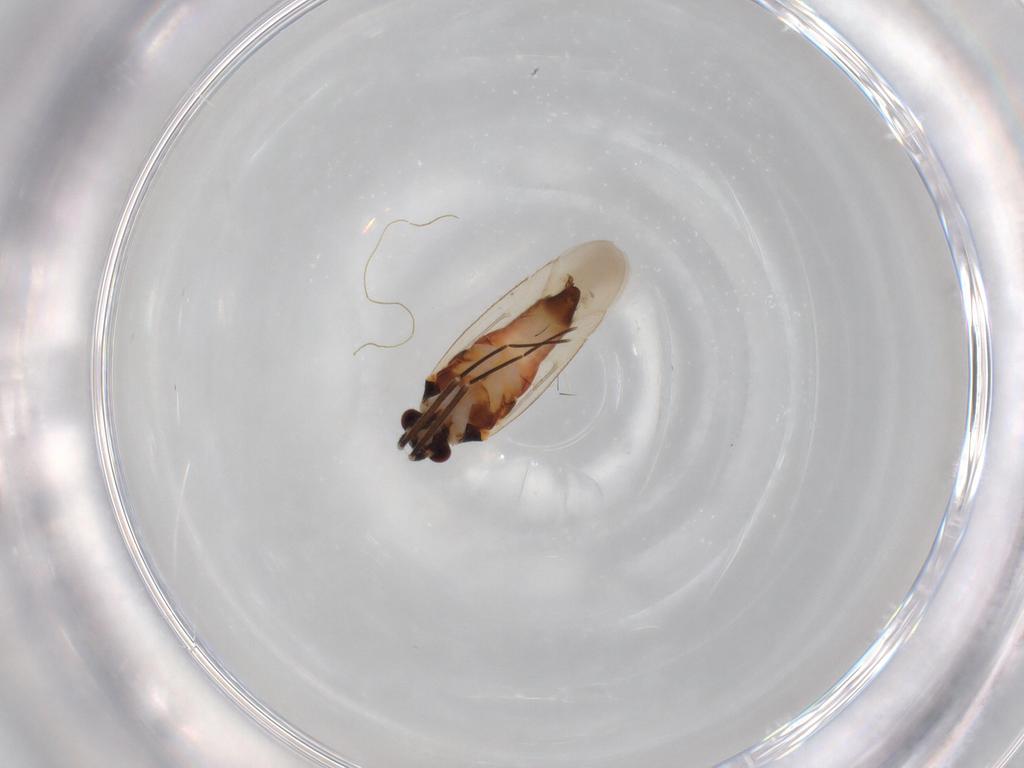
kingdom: Animalia
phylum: Arthropoda
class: Insecta
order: Hemiptera
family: Miridae
